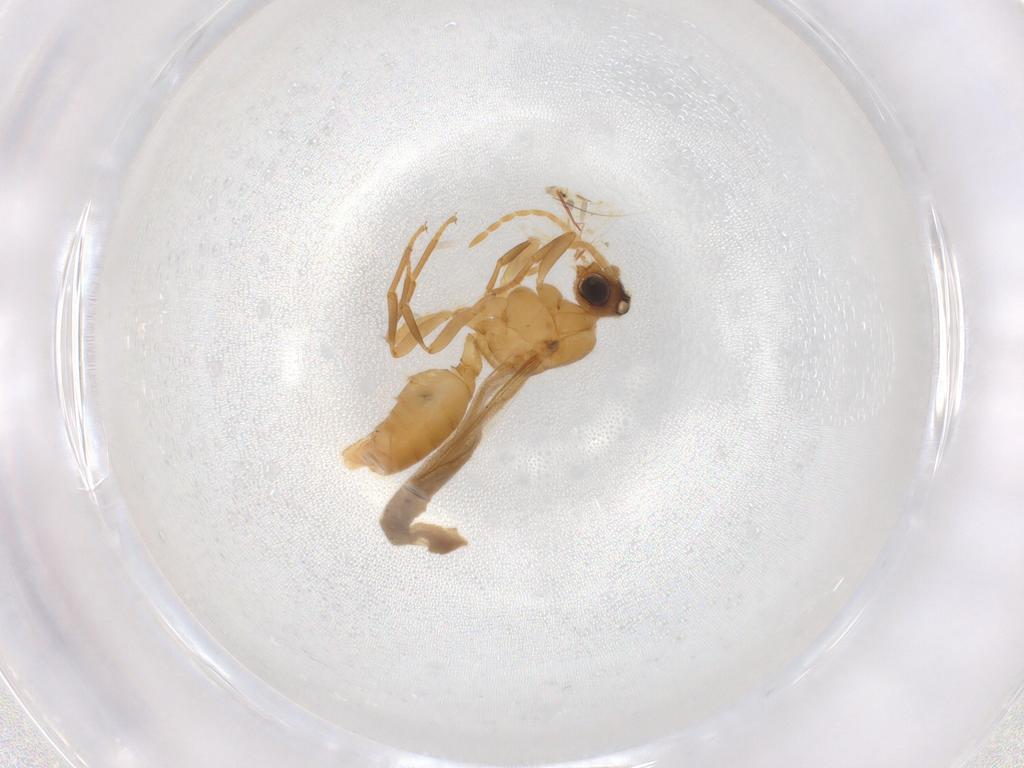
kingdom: Animalia
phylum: Arthropoda
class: Insecta
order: Hymenoptera
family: Formicidae
